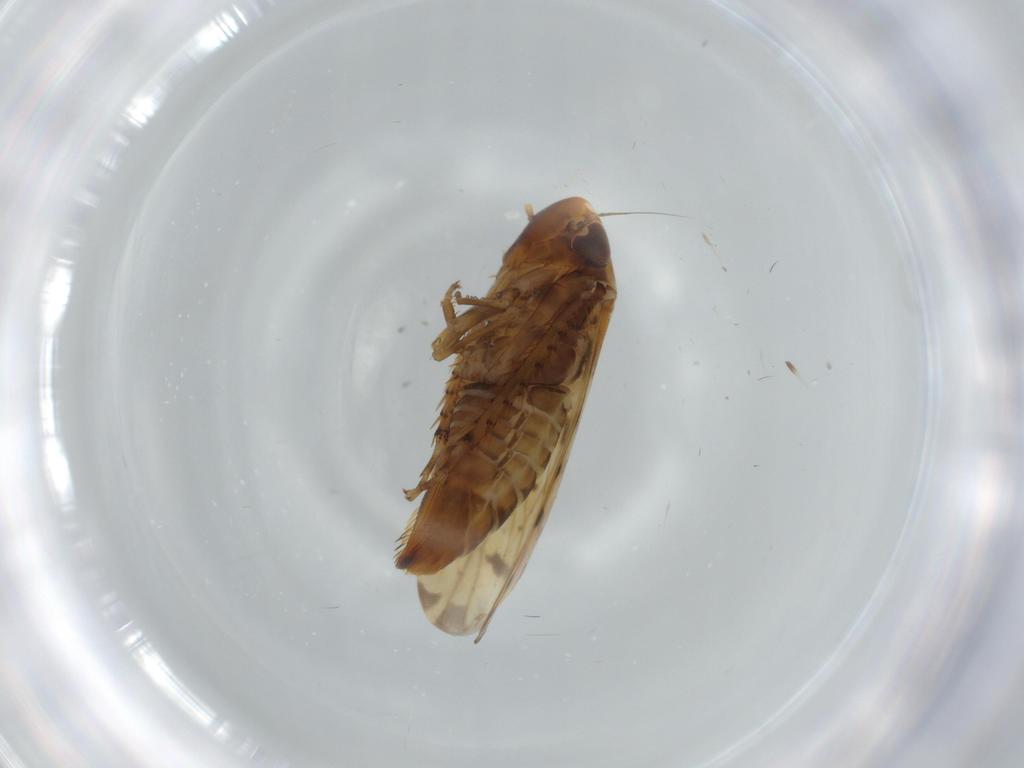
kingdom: Animalia
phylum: Arthropoda
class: Insecta
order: Hemiptera
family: Cicadellidae
